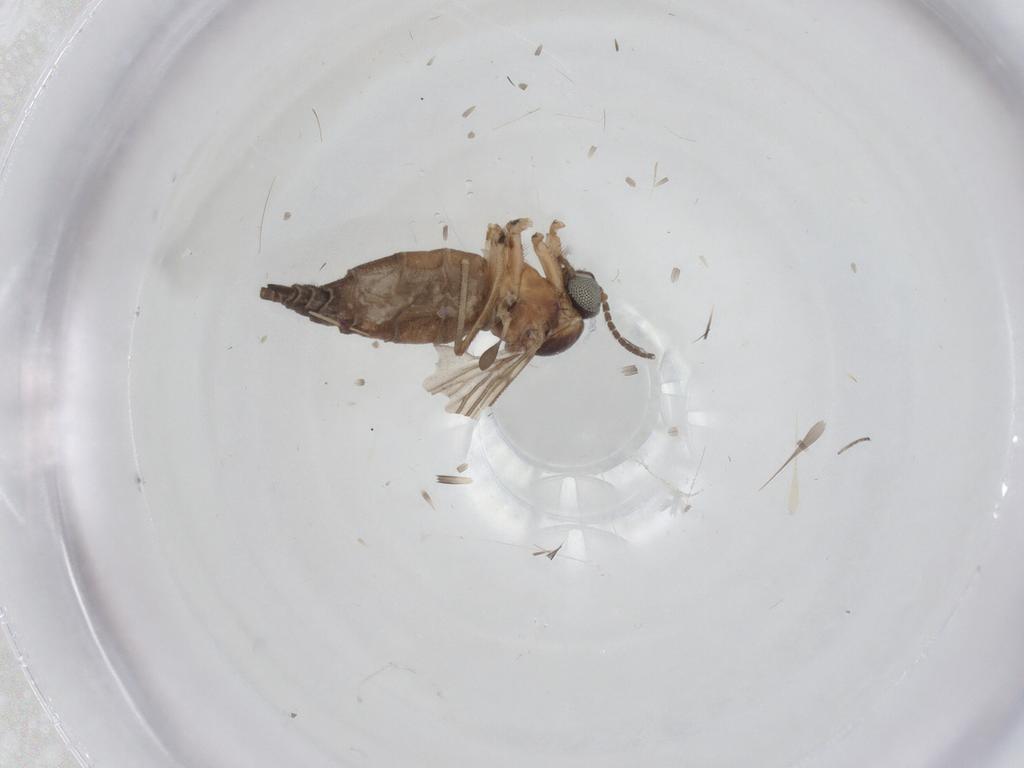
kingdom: Animalia
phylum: Arthropoda
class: Insecta
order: Diptera
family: Sciaridae
